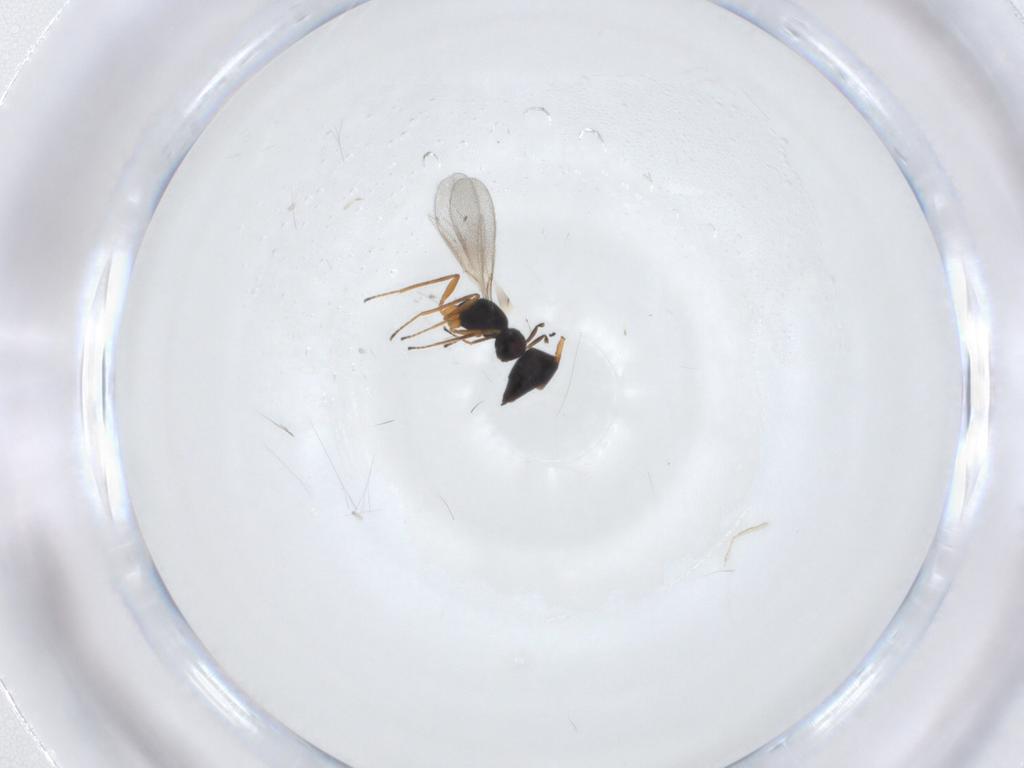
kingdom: Animalia
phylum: Arthropoda
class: Insecta
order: Hymenoptera
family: Mymaridae
